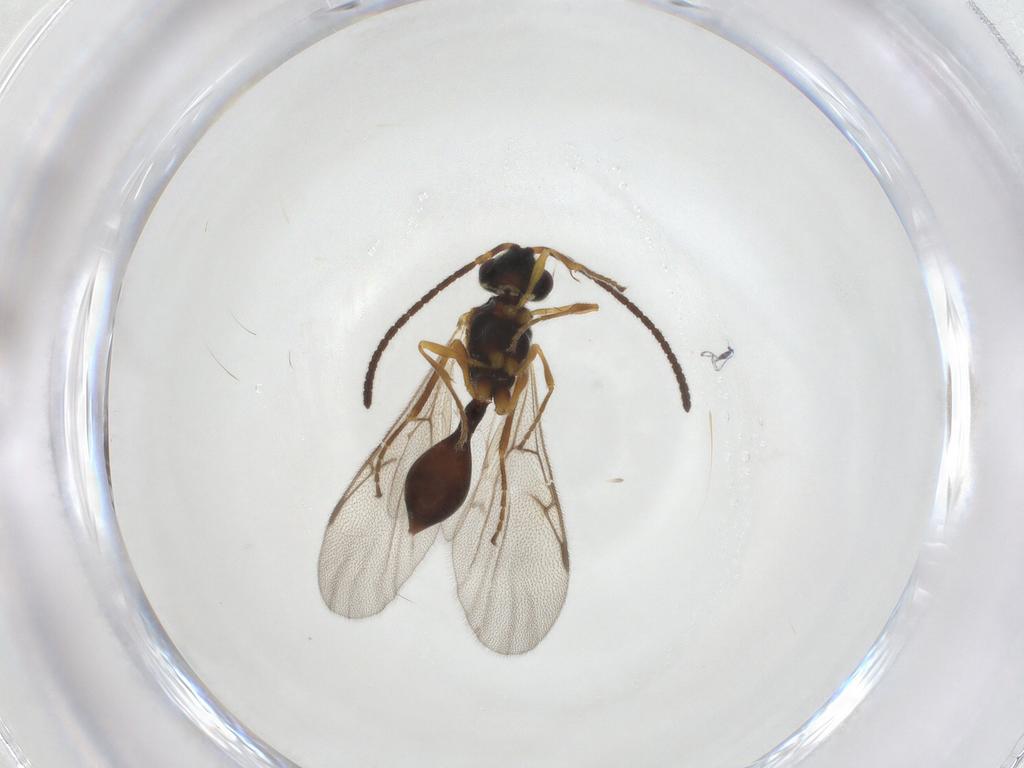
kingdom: Animalia
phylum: Arthropoda
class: Insecta
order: Hymenoptera
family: Diapriidae
